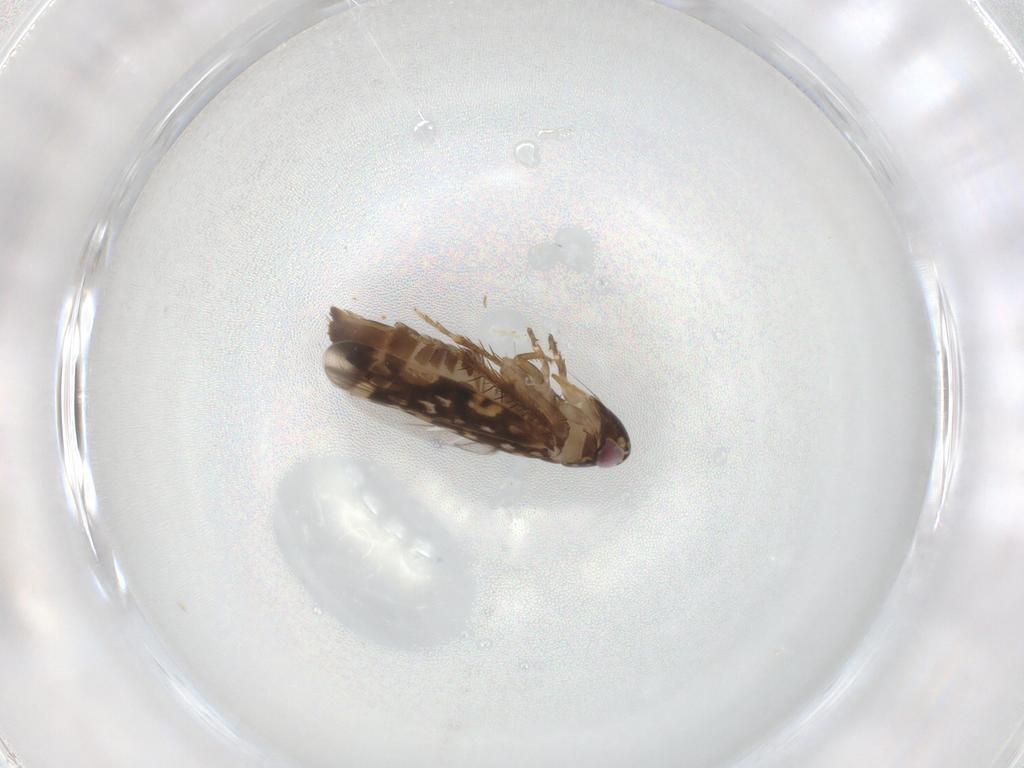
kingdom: Animalia
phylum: Arthropoda
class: Insecta
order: Hemiptera
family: Cicadellidae
